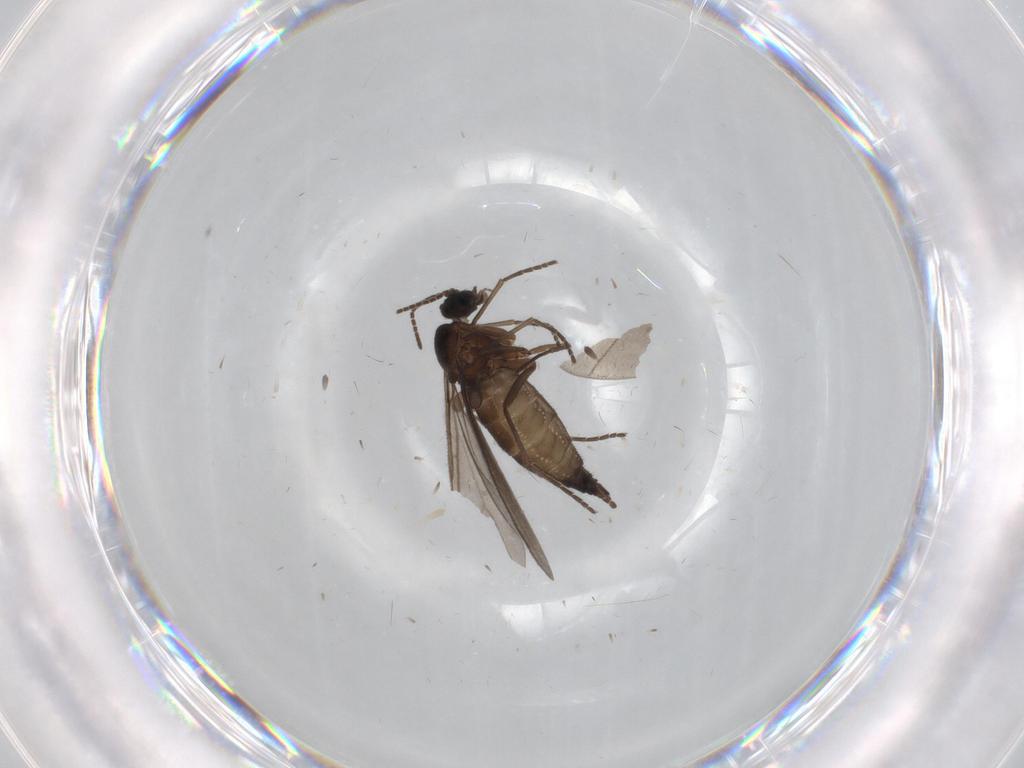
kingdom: Animalia
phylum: Arthropoda
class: Insecta
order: Diptera
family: Sciaridae
